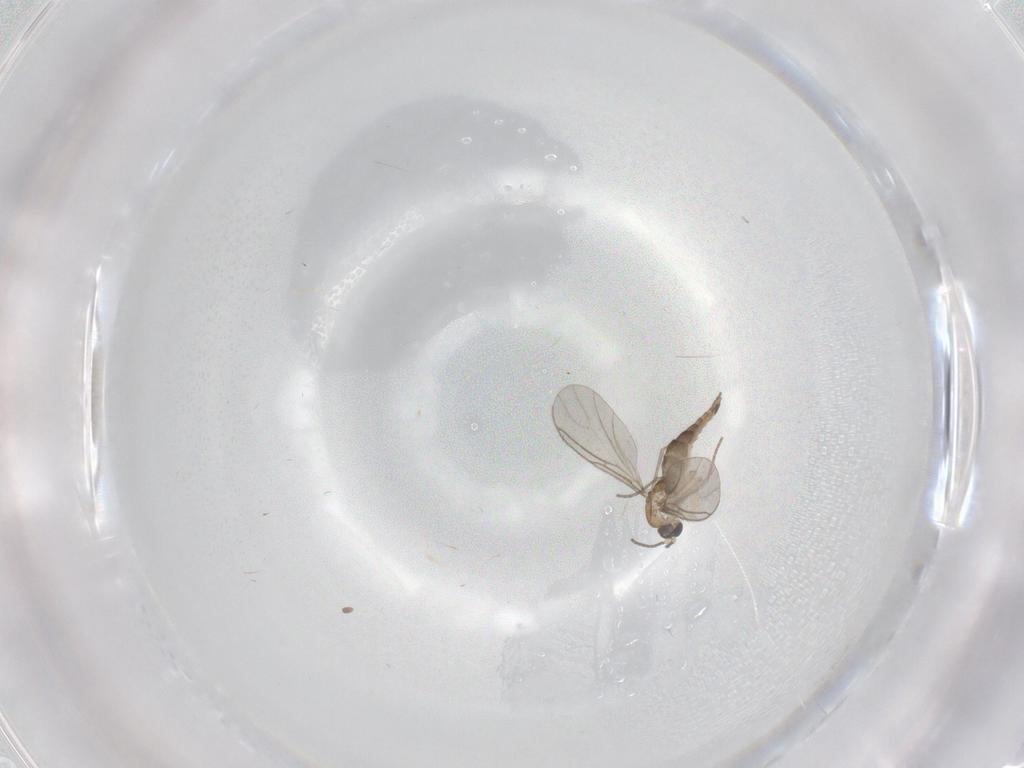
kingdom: Animalia
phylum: Arthropoda
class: Insecta
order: Diptera
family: Sciaridae
